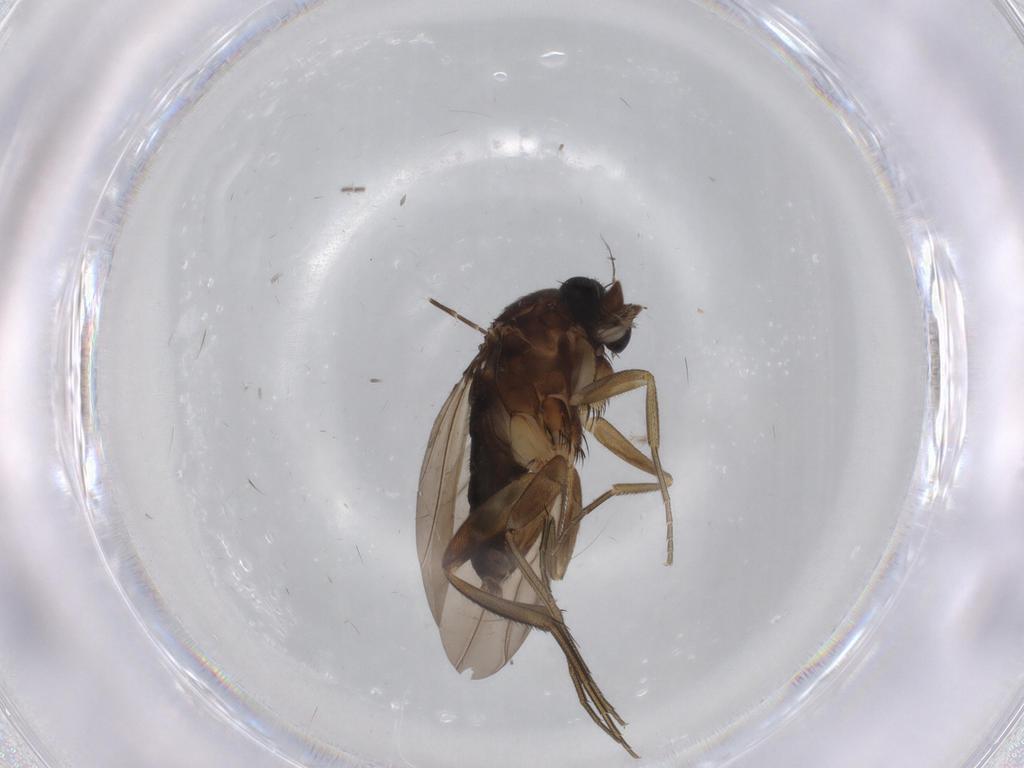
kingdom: Animalia
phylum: Arthropoda
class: Insecta
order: Diptera
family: Phoridae
